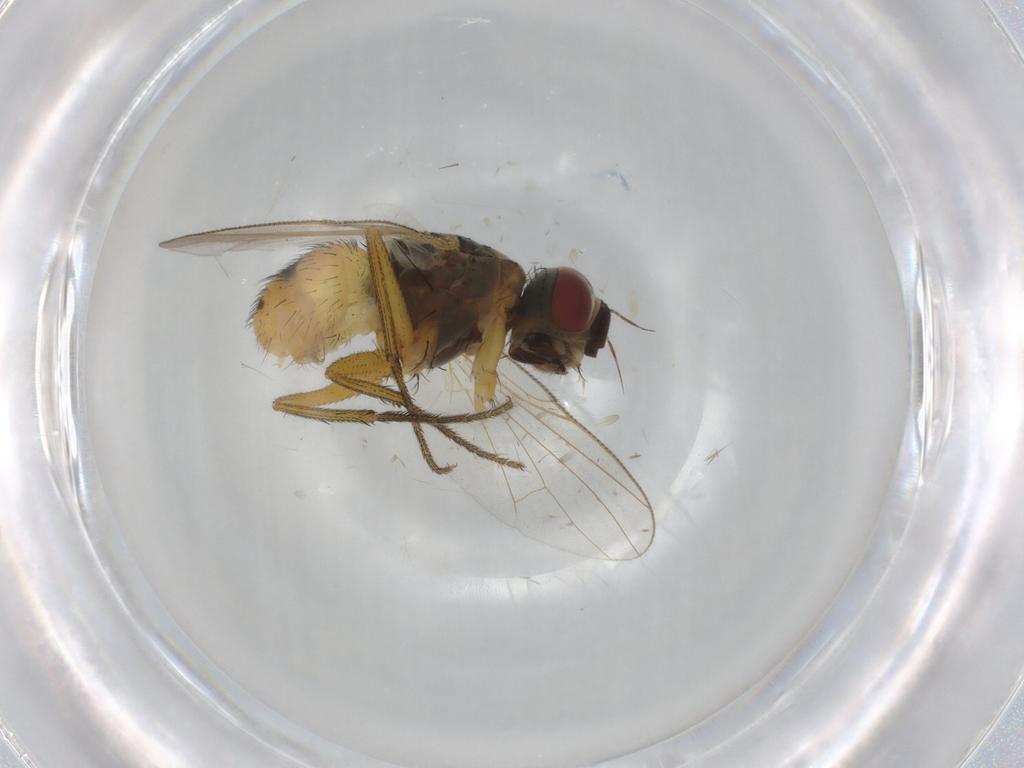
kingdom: Animalia
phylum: Arthropoda
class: Insecta
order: Diptera
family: Muscidae
